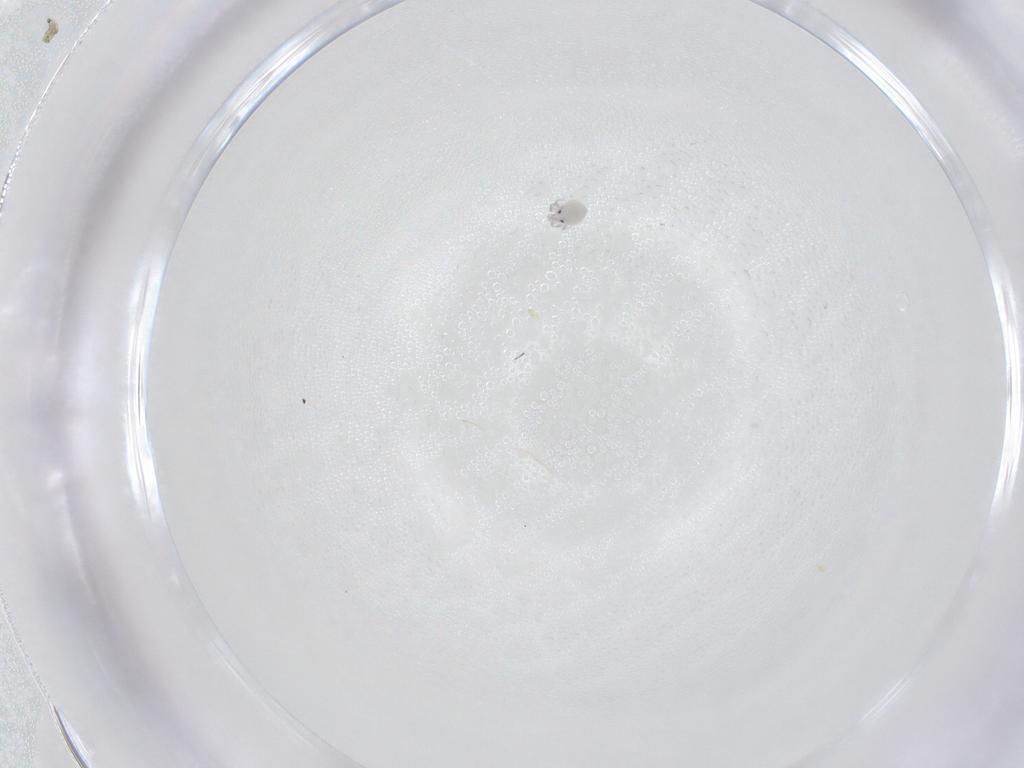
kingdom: Animalia
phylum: Arthropoda
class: Arachnida
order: Trombidiformes
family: Pionidae
